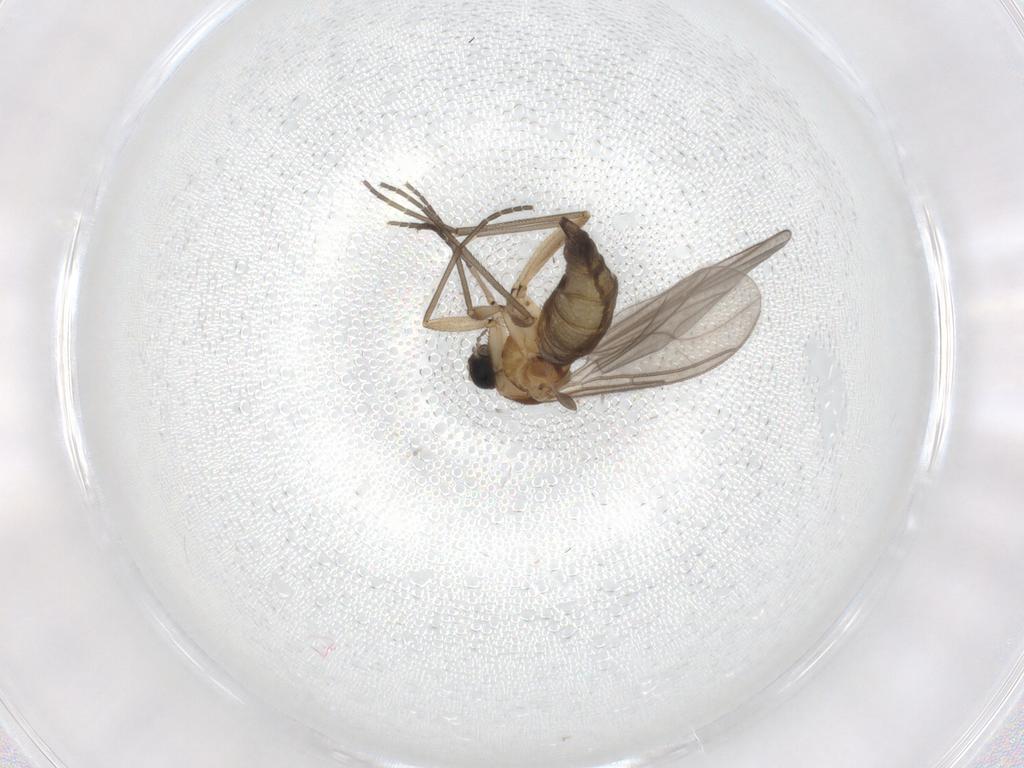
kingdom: Animalia
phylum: Arthropoda
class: Insecta
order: Diptera
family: Sciaridae
